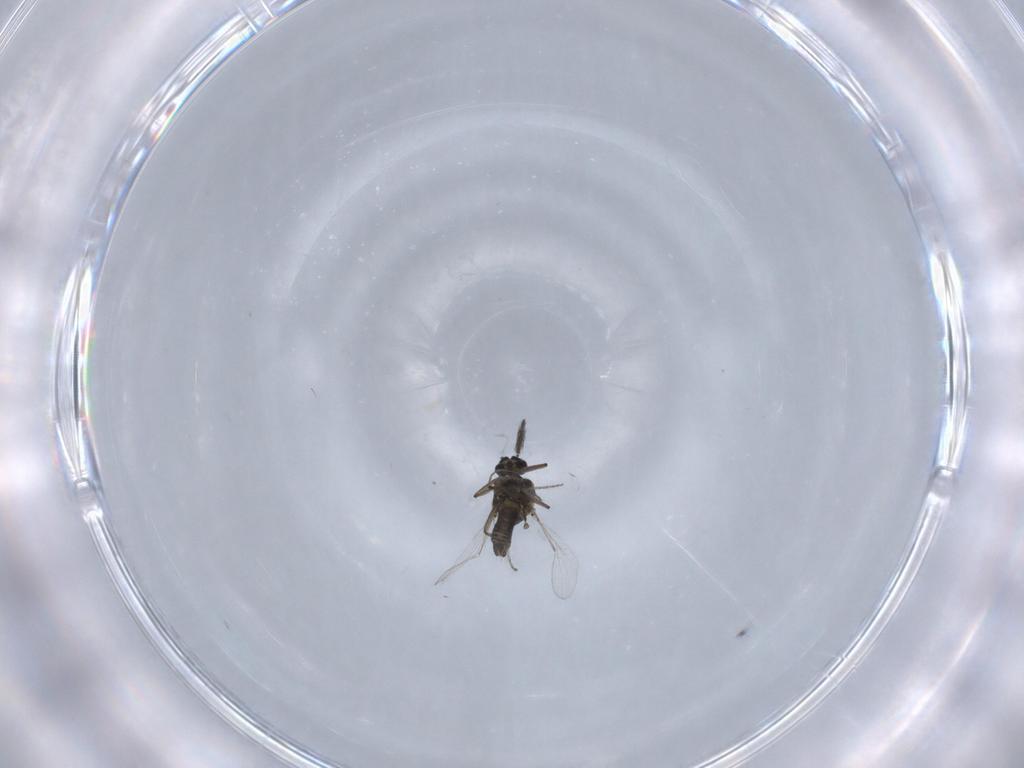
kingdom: Animalia
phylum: Arthropoda
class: Insecta
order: Diptera
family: Ceratopogonidae
